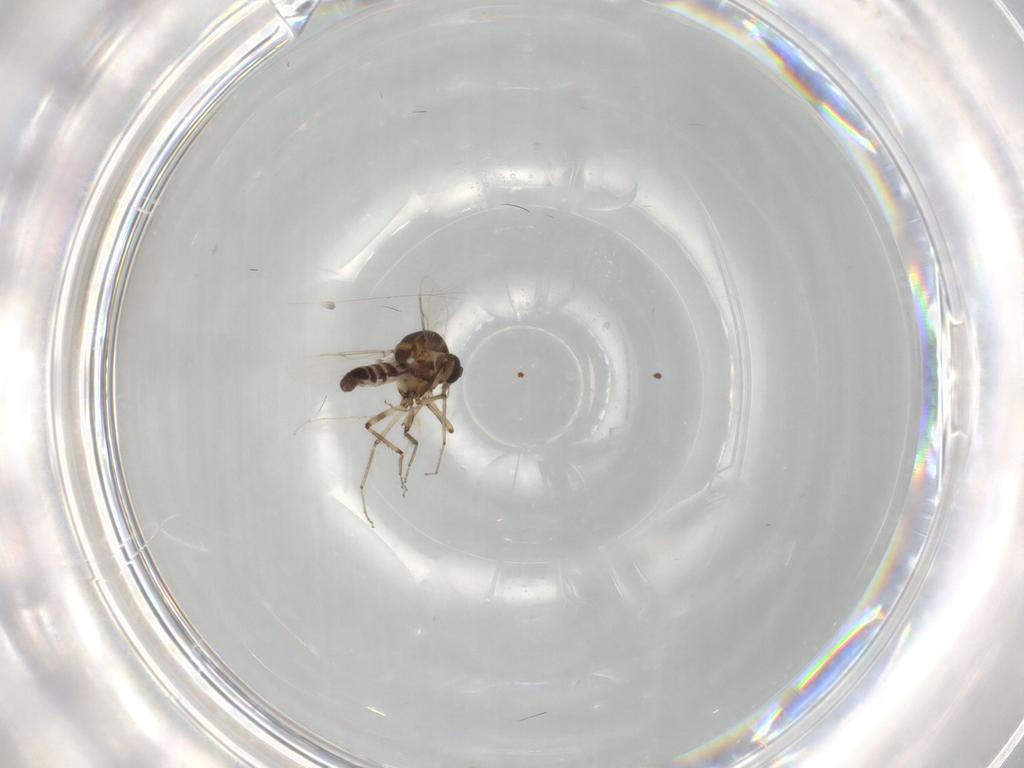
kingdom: Animalia
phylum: Arthropoda
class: Insecta
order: Diptera
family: Ceratopogonidae
